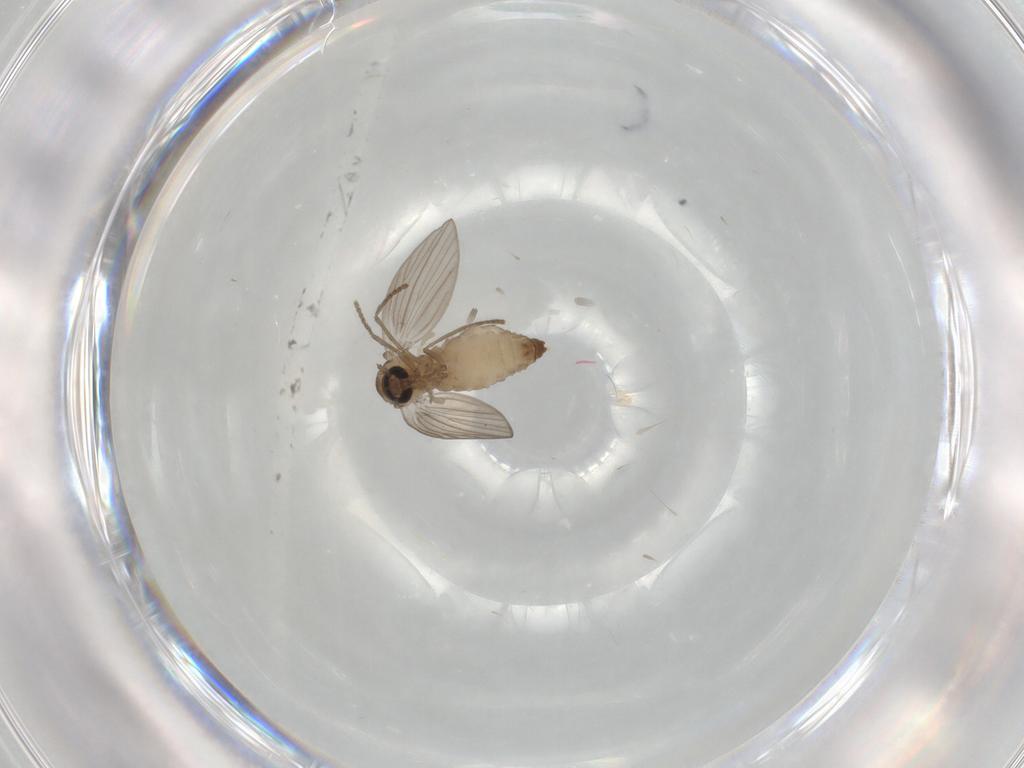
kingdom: Animalia
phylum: Arthropoda
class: Insecta
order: Diptera
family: Psychodidae
